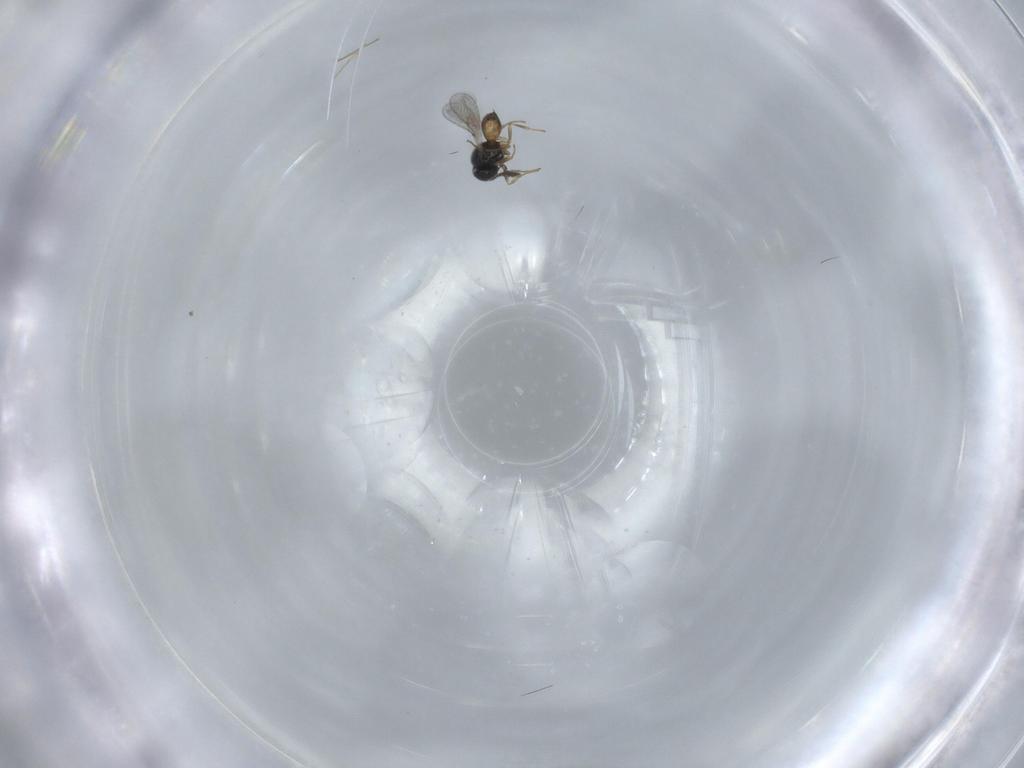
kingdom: Animalia
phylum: Arthropoda
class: Insecta
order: Hymenoptera
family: Scelionidae
